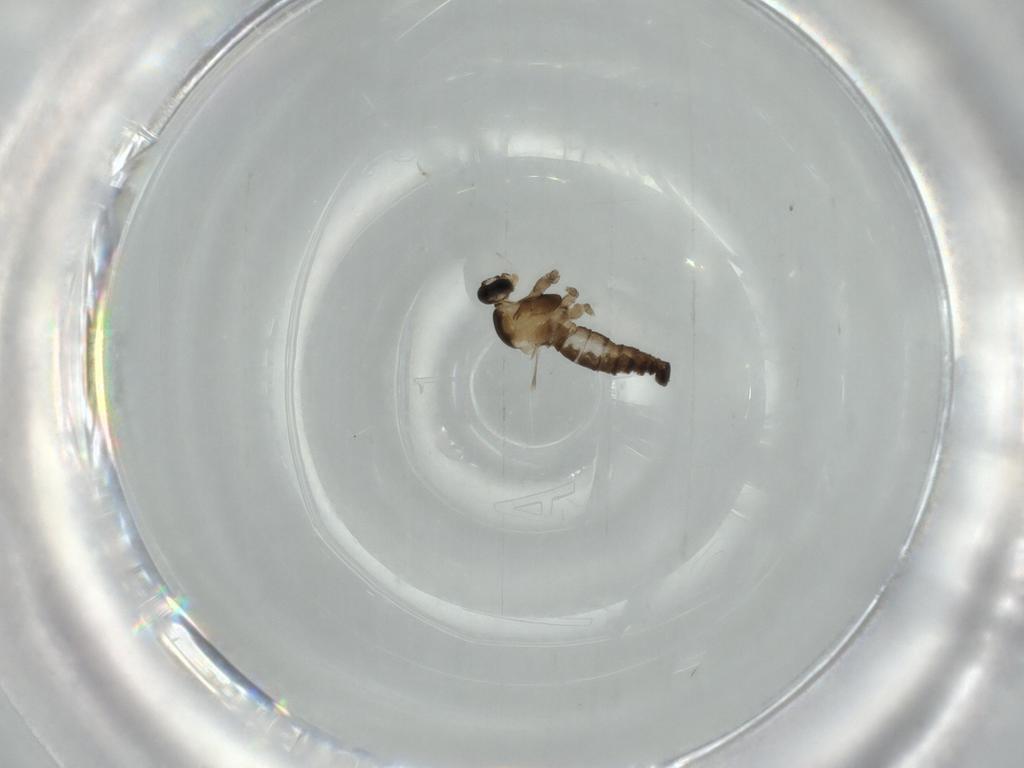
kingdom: Animalia
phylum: Arthropoda
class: Insecta
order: Diptera
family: Cecidomyiidae
